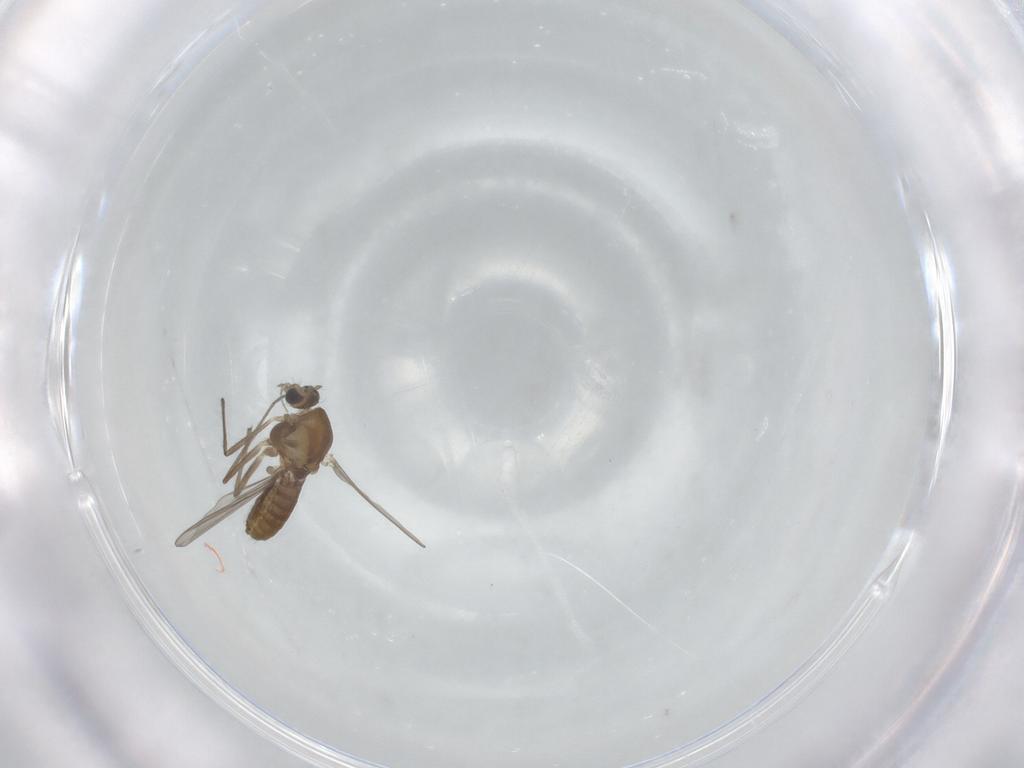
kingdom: Animalia
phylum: Arthropoda
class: Insecta
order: Diptera
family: Chironomidae
